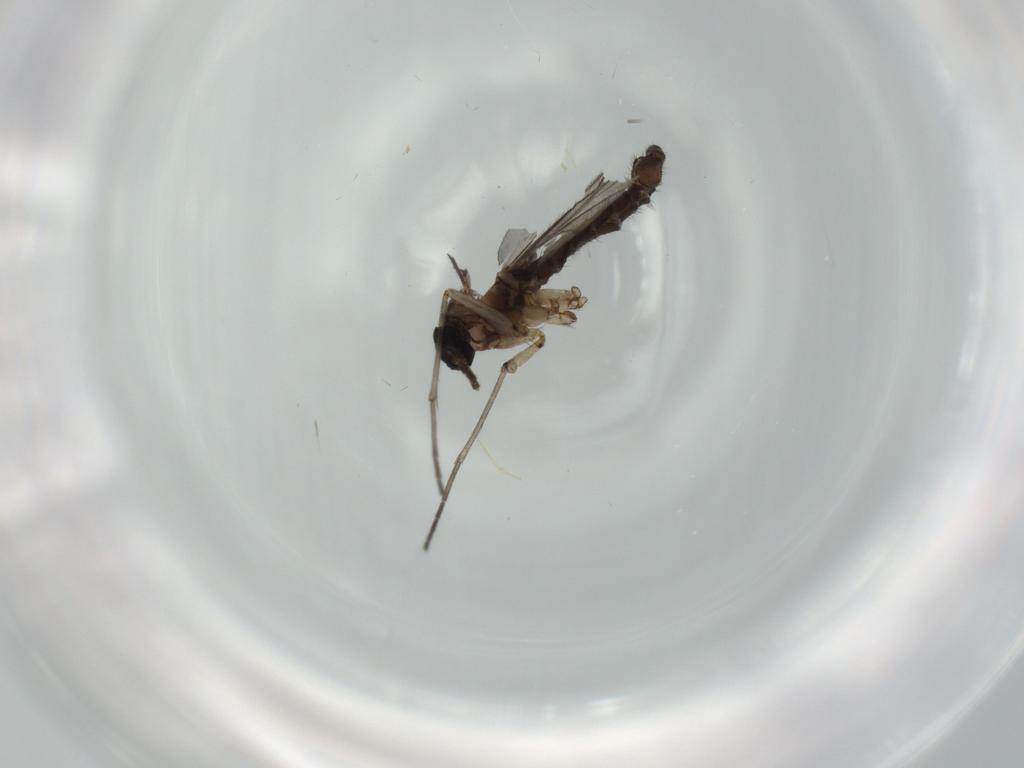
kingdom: Animalia
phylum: Arthropoda
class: Insecta
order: Diptera
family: Sciaridae
